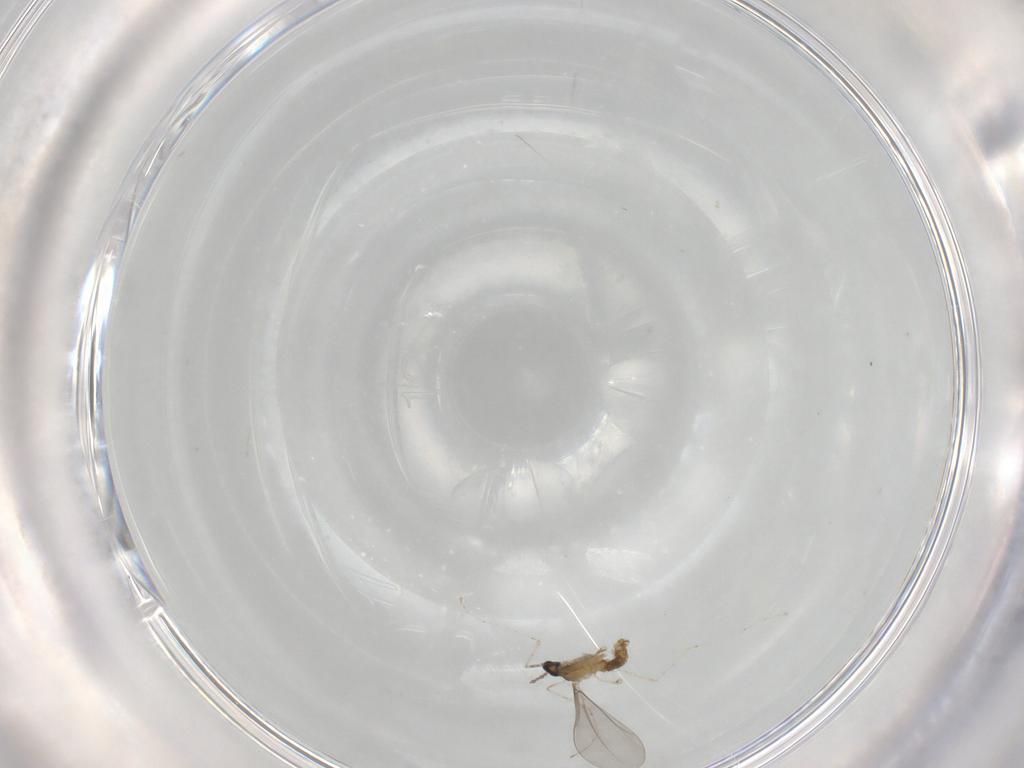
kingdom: Animalia
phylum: Arthropoda
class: Insecta
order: Diptera
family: Cecidomyiidae
